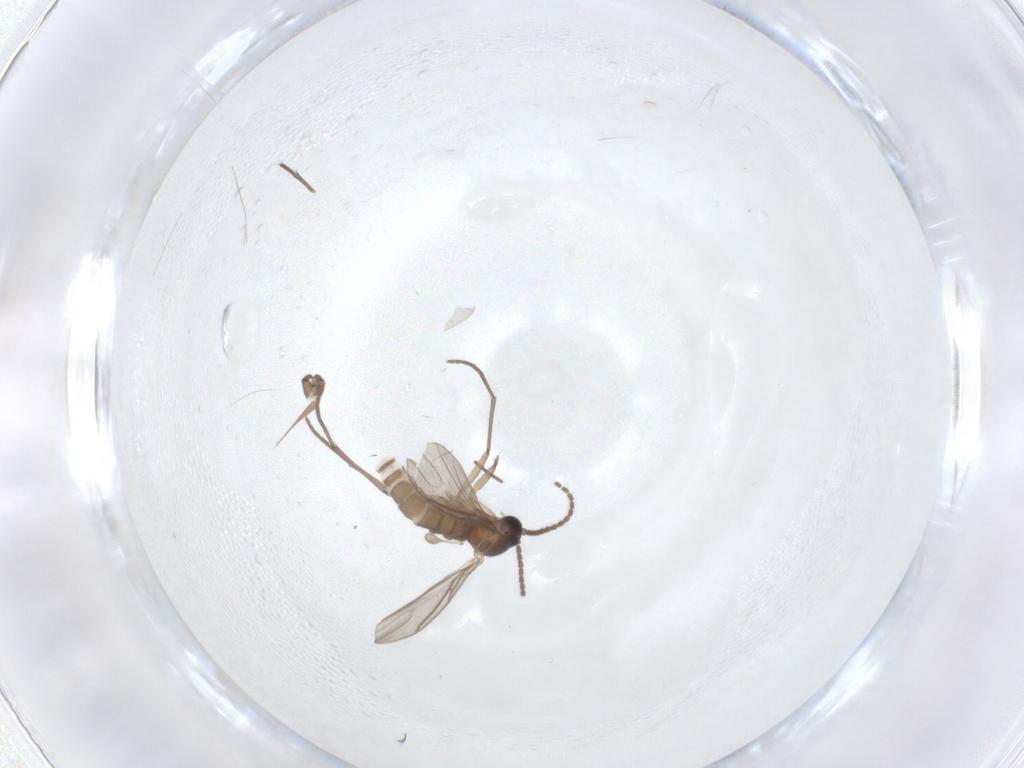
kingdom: Animalia
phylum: Arthropoda
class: Insecta
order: Diptera
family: Sciaridae
